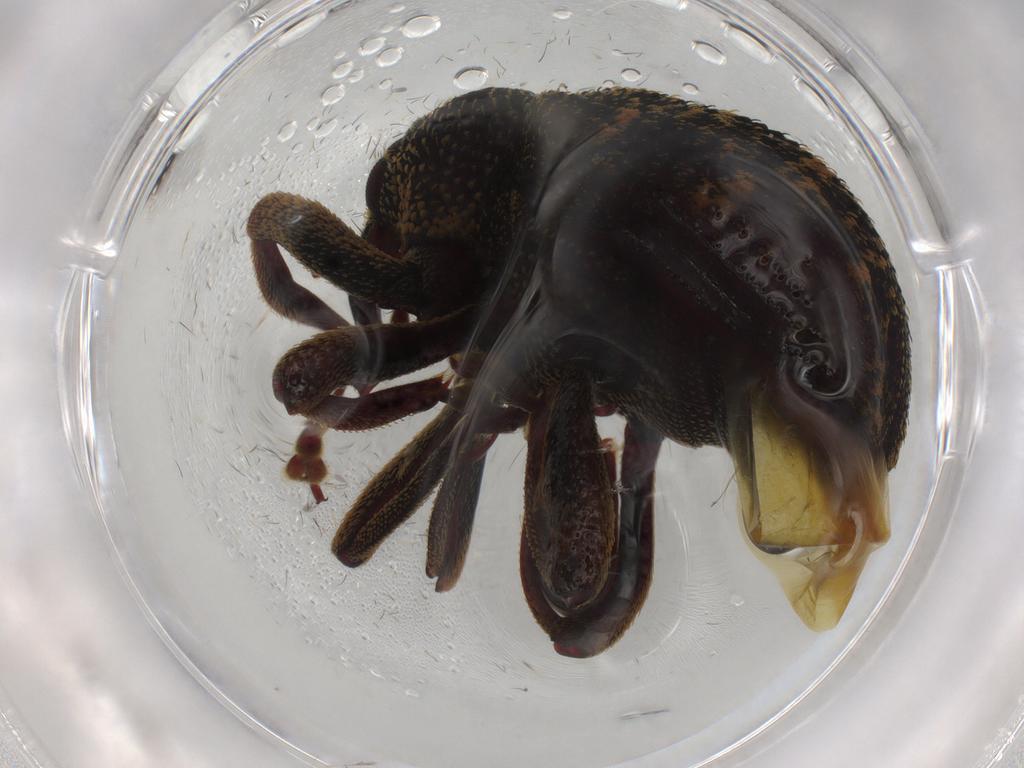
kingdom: Animalia
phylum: Arthropoda
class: Insecta
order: Coleoptera
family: Curculionidae
